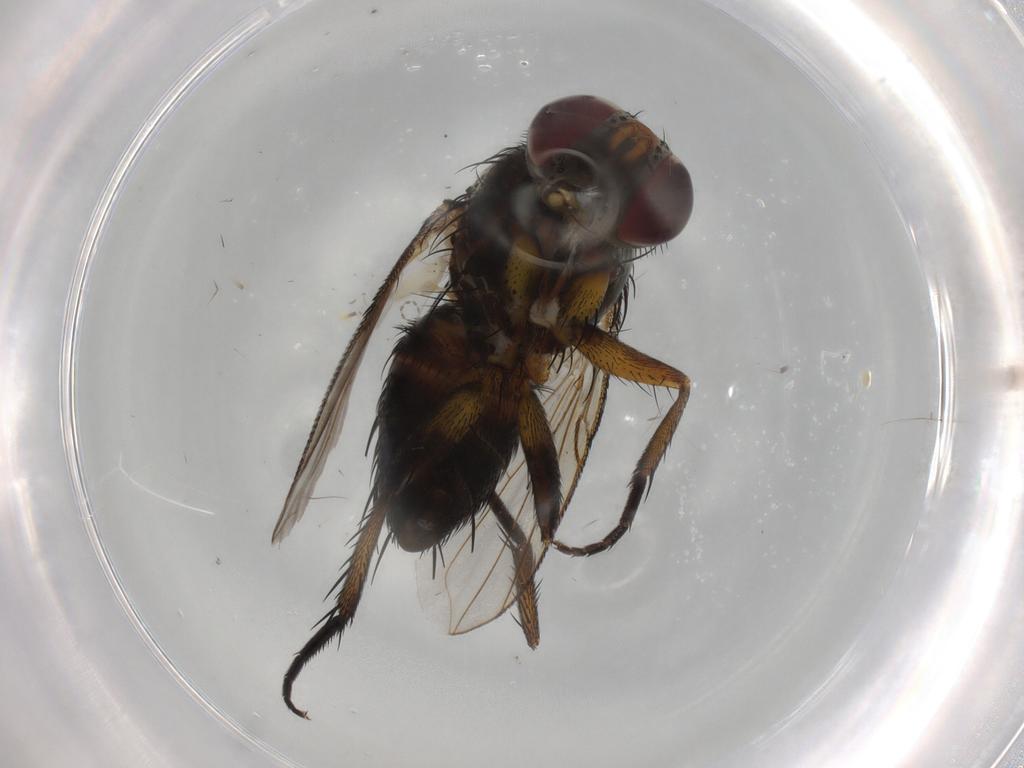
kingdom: Animalia
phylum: Arthropoda
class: Insecta
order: Diptera
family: Tachinidae
